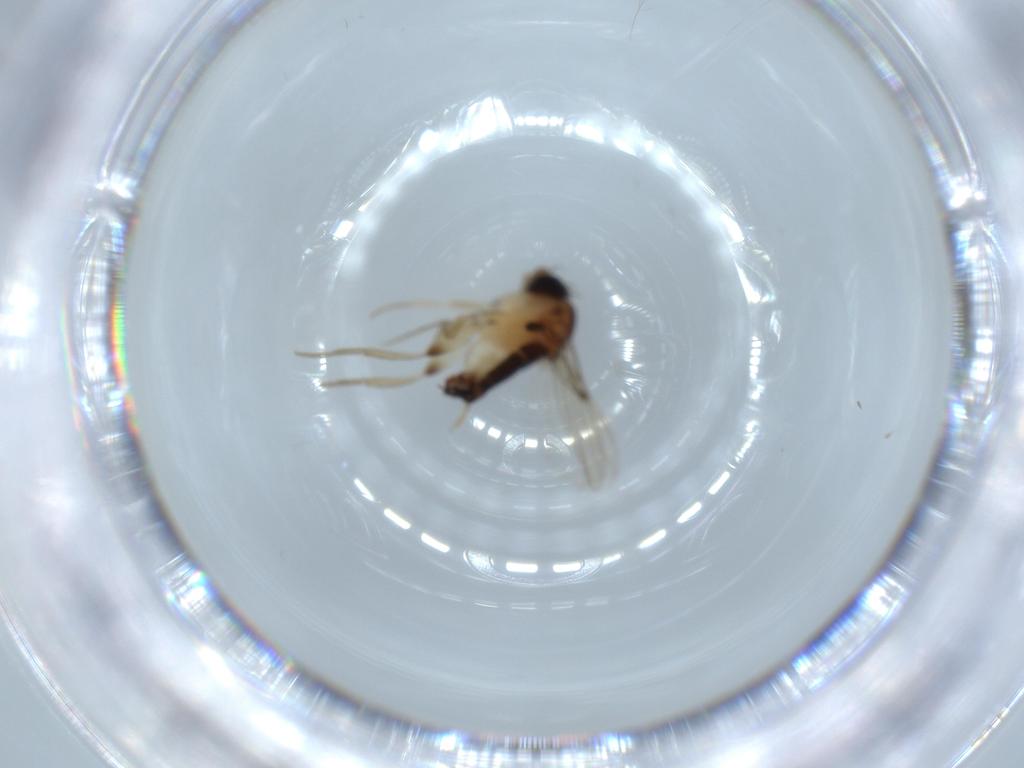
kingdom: Animalia
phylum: Arthropoda
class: Insecta
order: Diptera
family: Phoridae
